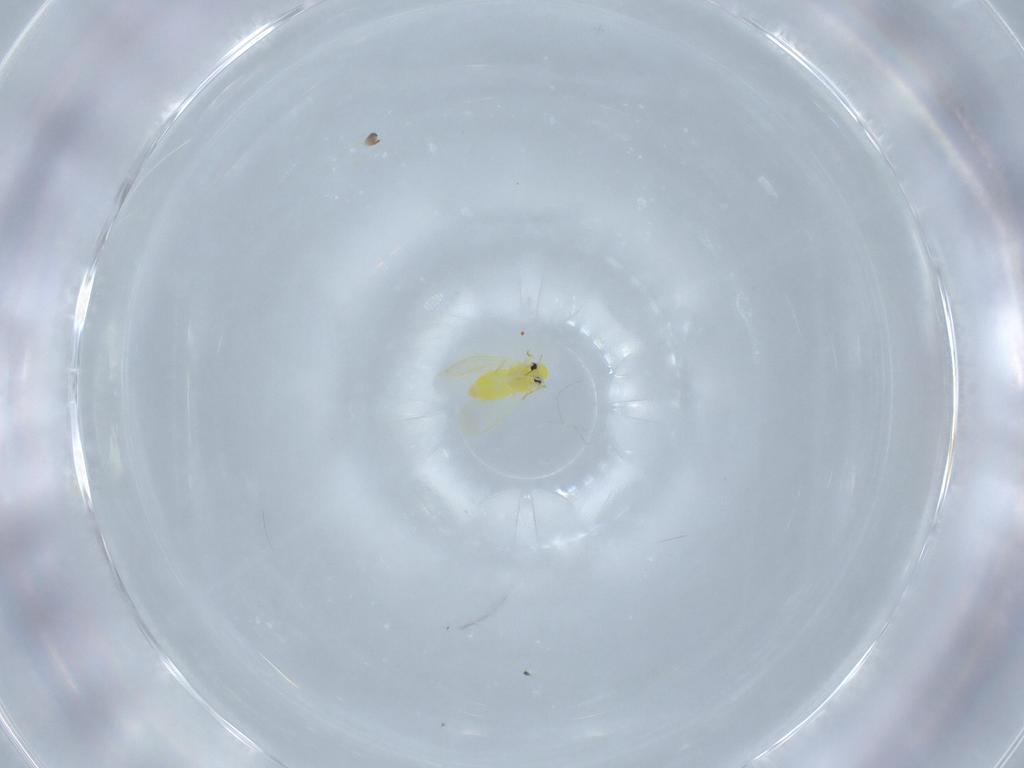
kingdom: Animalia
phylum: Arthropoda
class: Insecta
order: Hemiptera
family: Aleyrodidae
